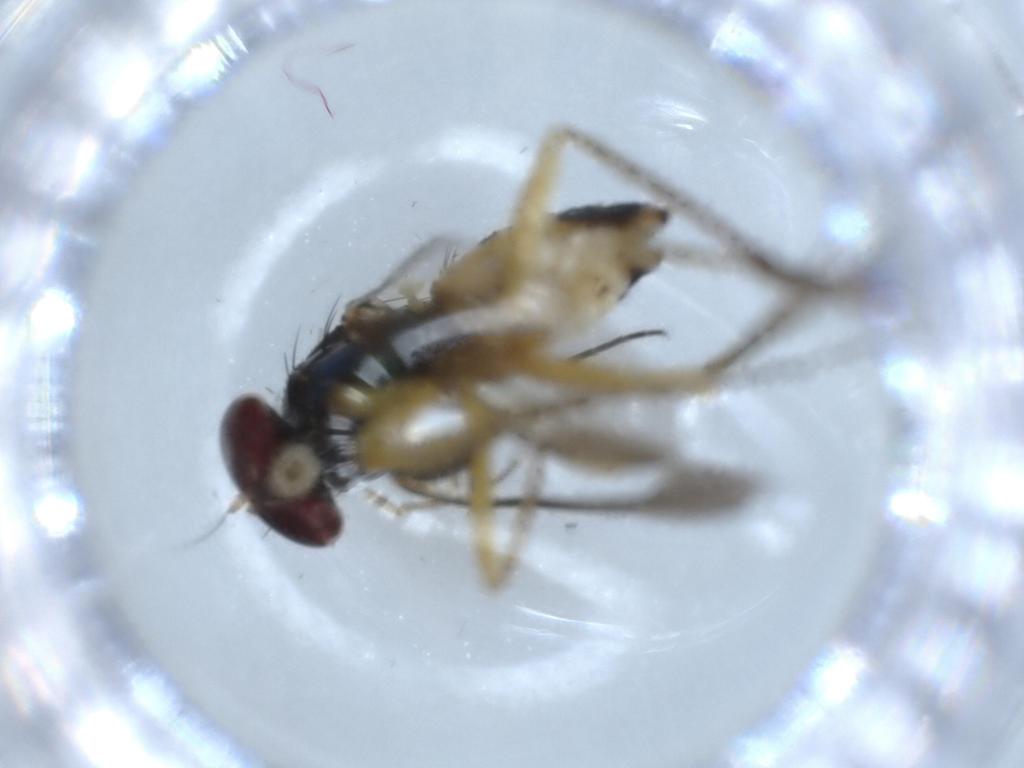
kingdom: Animalia
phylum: Arthropoda
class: Insecta
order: Diptera
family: Dolichopodidae
